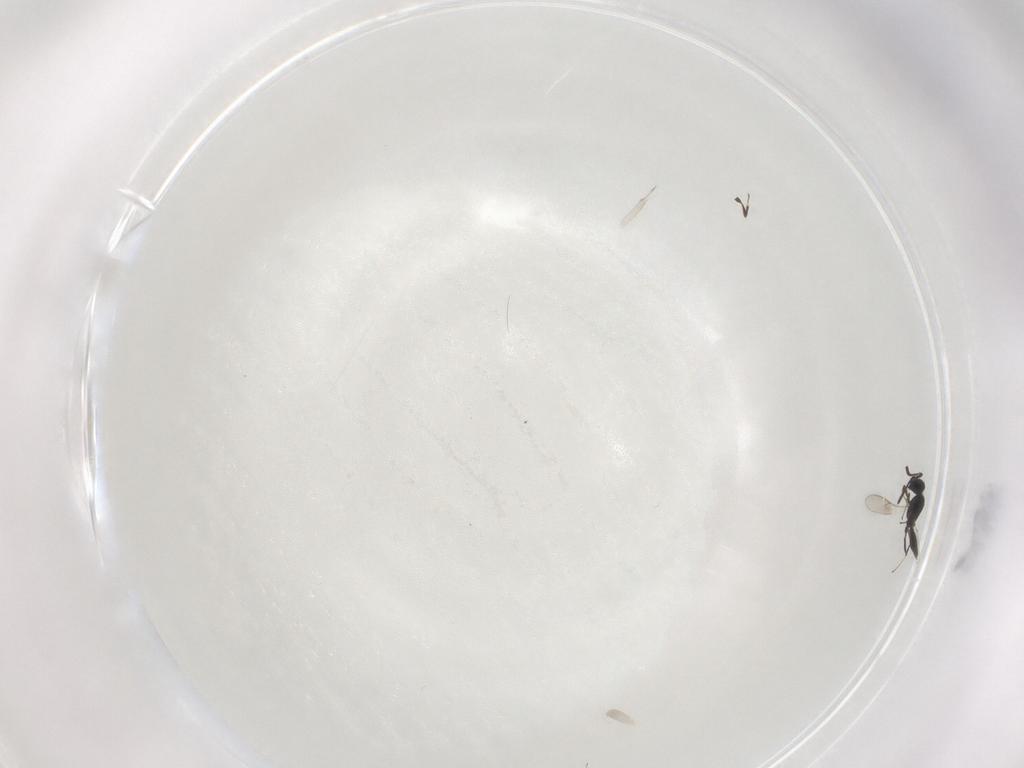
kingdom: Animalia
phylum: Arthropoda
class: Insecta
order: Hymenoptera
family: Scelionidae
